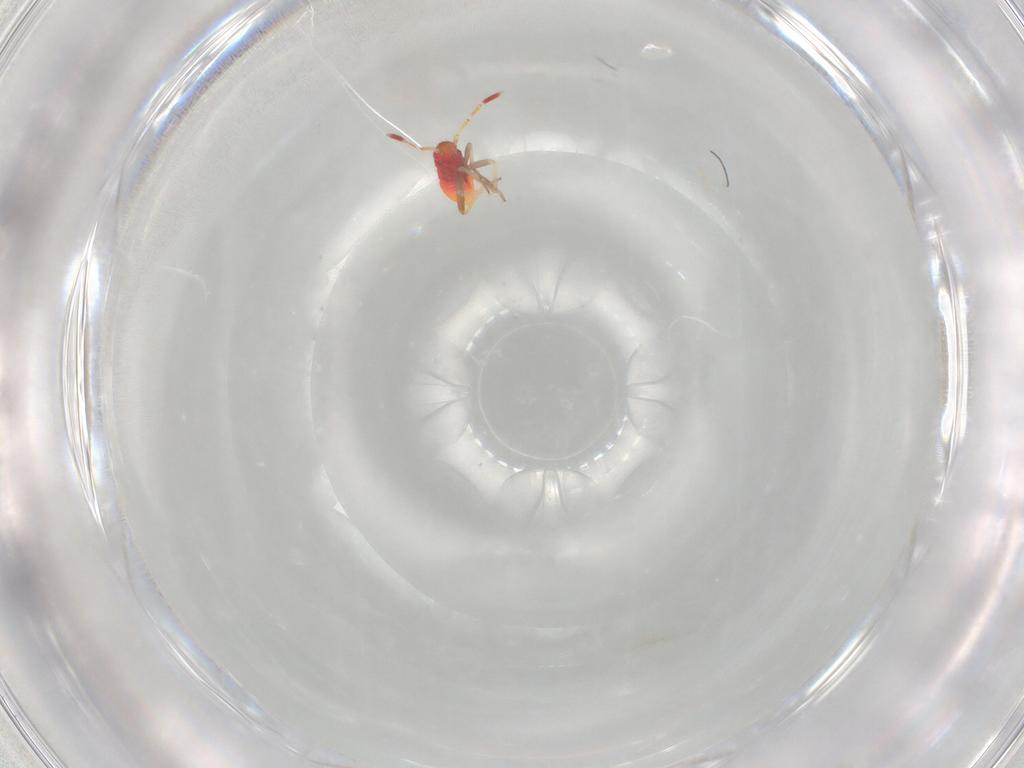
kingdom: Animalia
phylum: Arthropoda
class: Insecta
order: Hemiptera
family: Miridae
